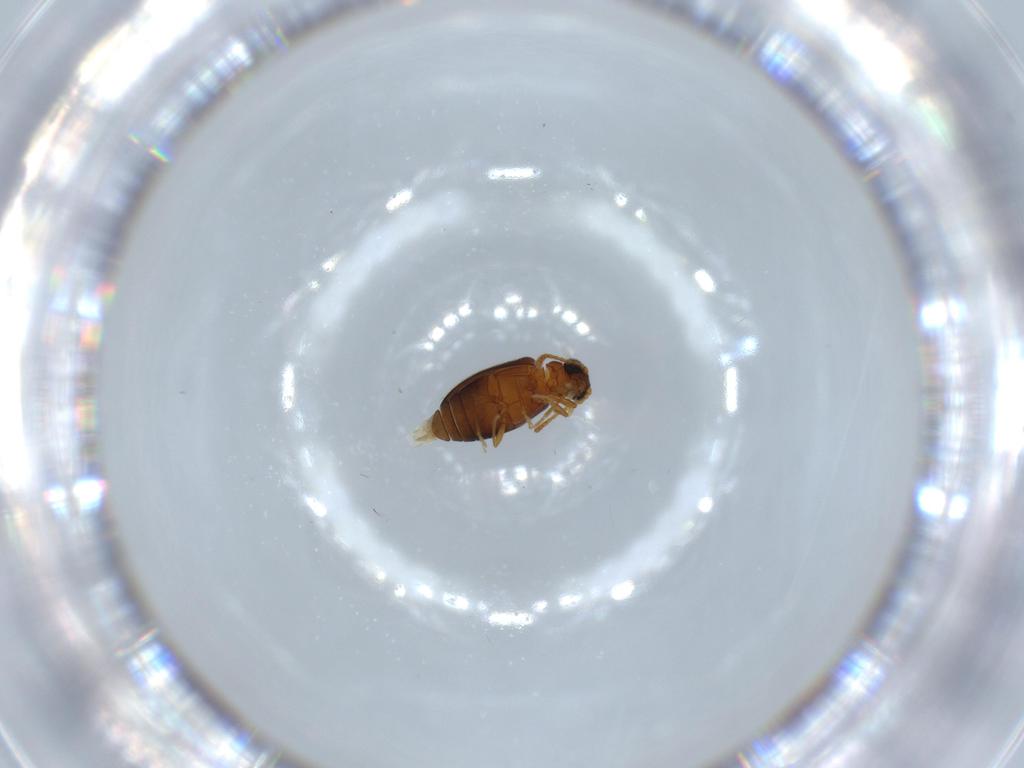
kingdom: Animalia
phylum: Arthropoda
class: Insecta
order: Coleoptera
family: Aderidae
